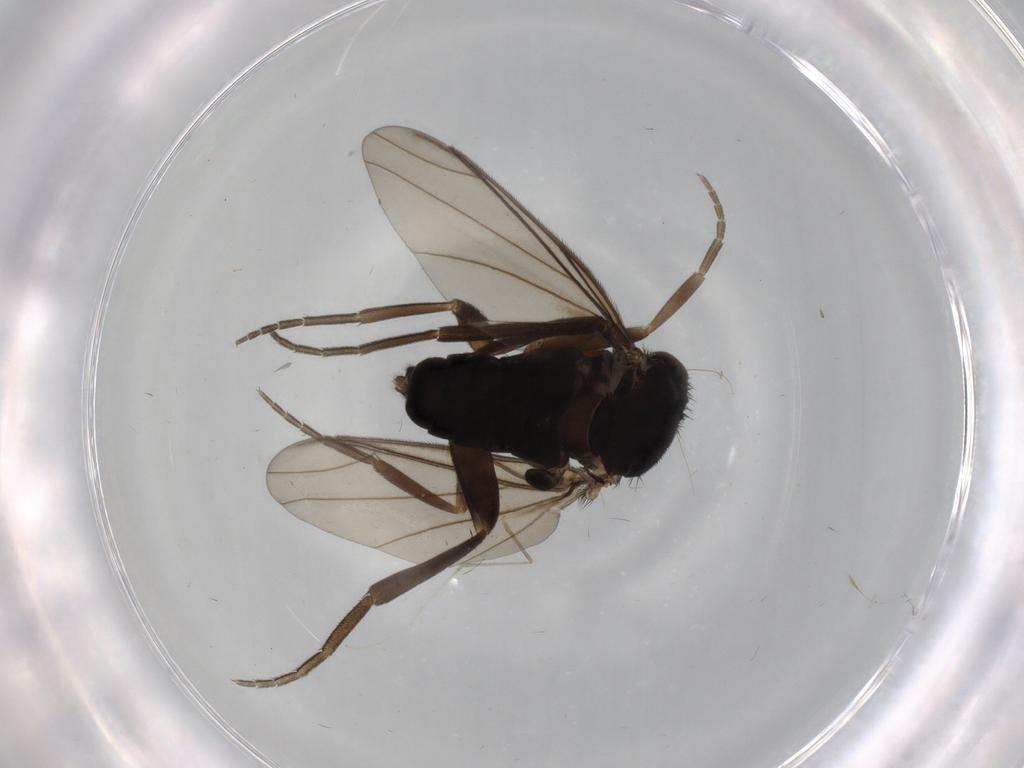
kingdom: Animalia
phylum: Arthropoda
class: Insecta
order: Diptera
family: Phoridae
